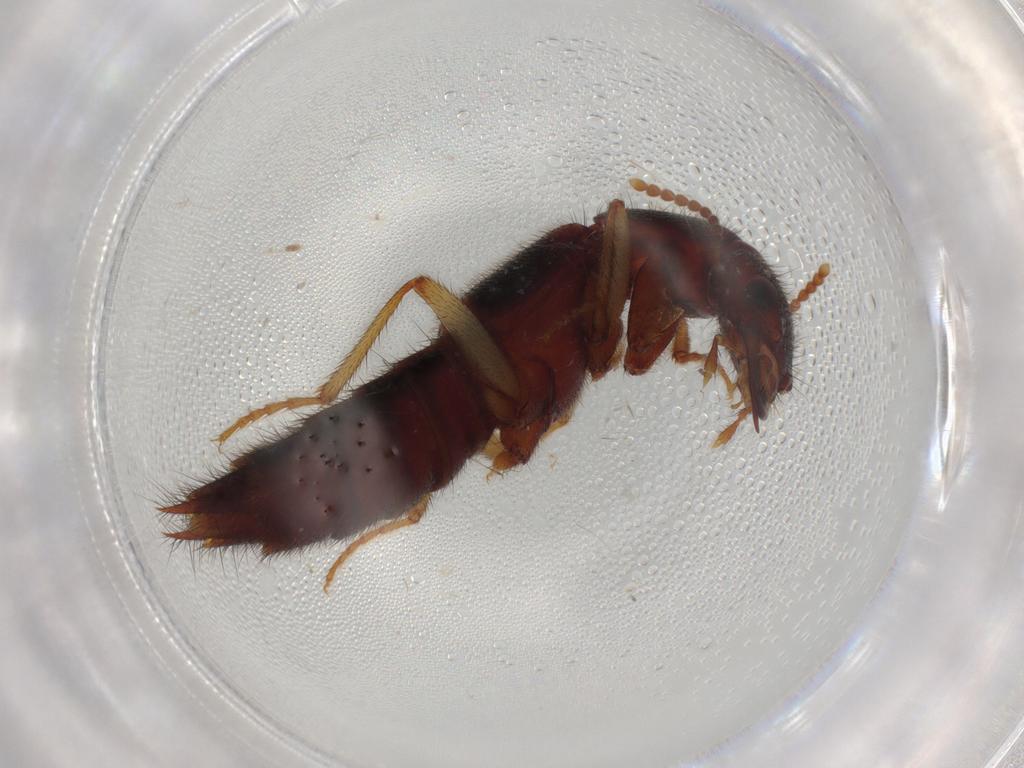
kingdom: Animalia
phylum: Arthropoda
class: Insecta
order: Coleoptera
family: Staphylinidae
